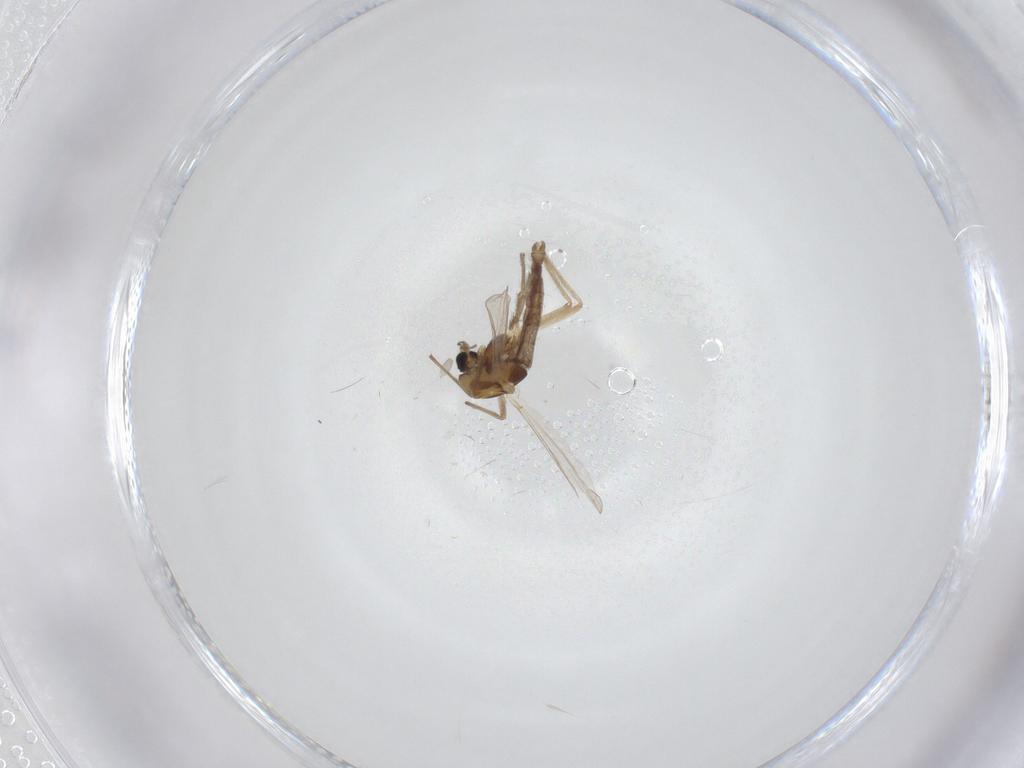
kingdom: Animalia
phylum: Arthropoda
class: Insecta
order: Diptera
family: Chironomidae
